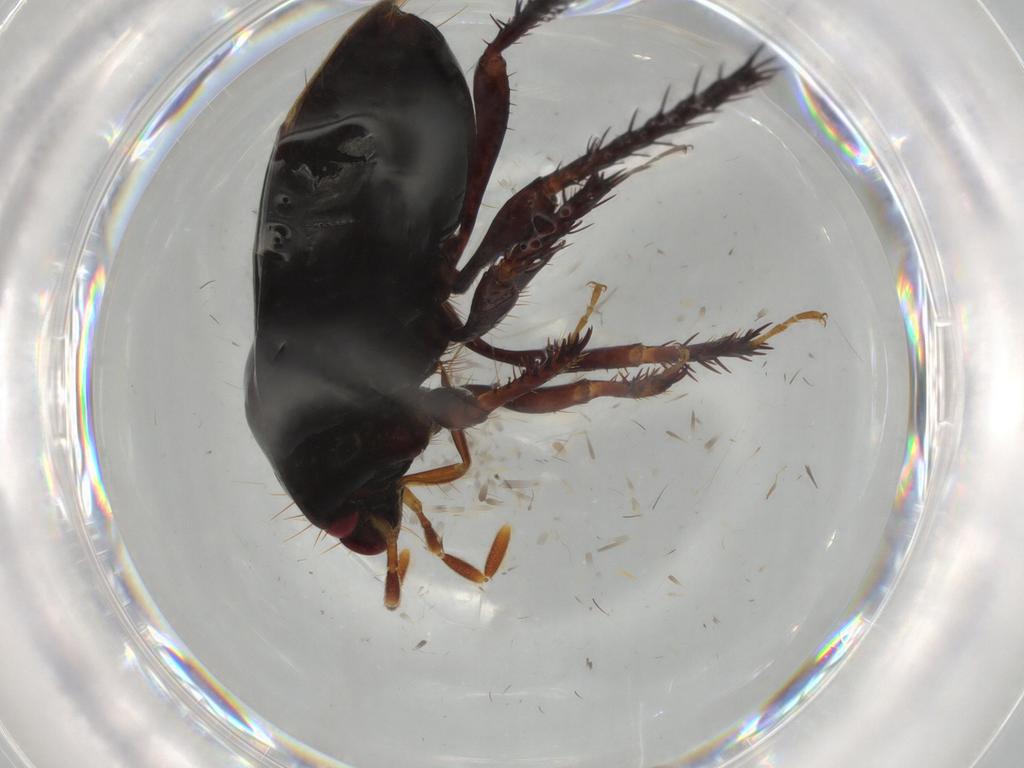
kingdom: Animalia
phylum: Arthropoda
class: Insecta
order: Hemiptera
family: Cydnidae
